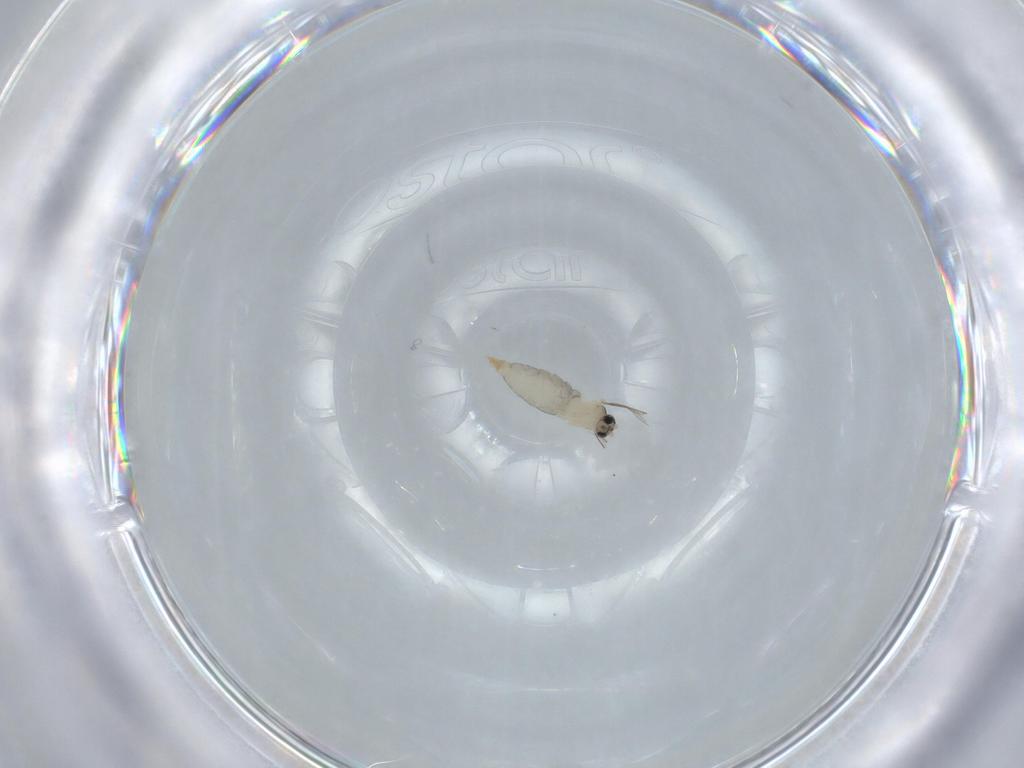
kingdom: Animalia
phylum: Arthropoda
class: Insecta
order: Diptera
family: Psychodidae
